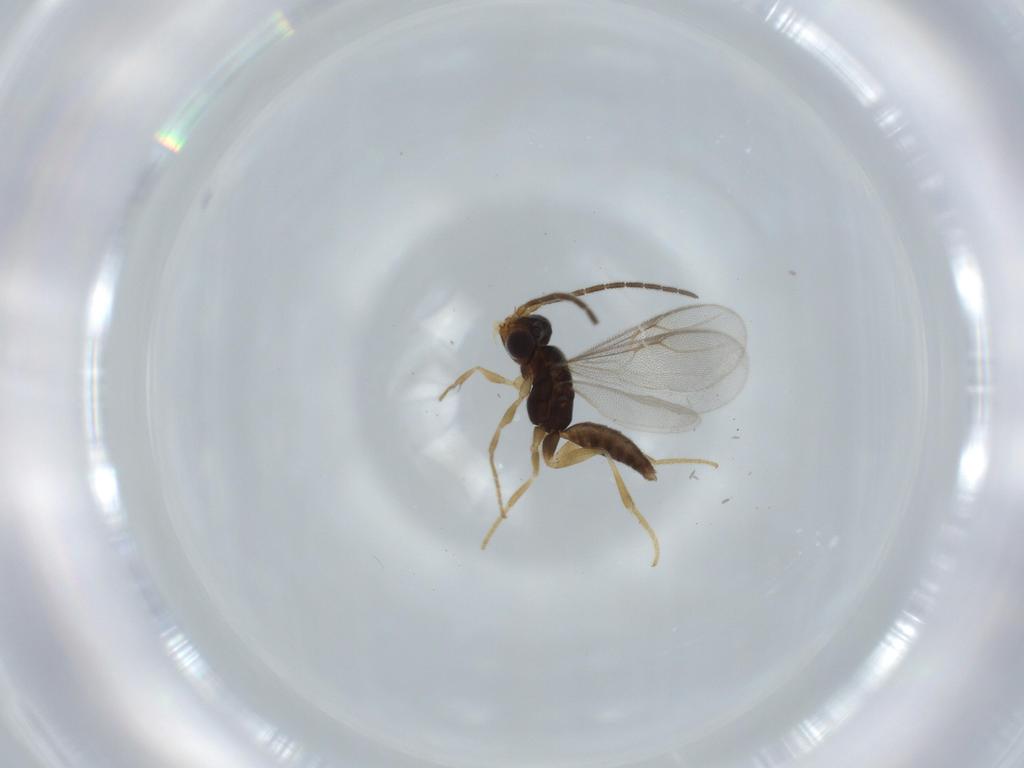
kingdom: Animalia
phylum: Arthropoda
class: Insecta
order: Hymenoptera
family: Dryinidae
